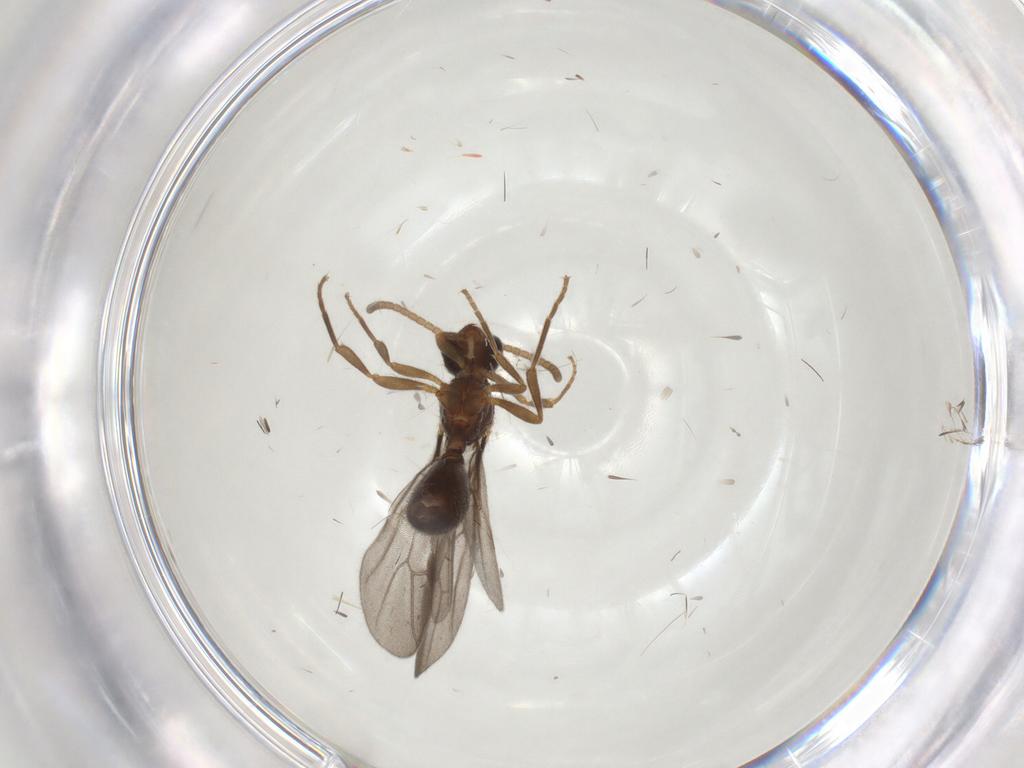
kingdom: Animalia
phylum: Arthropoda
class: Insecta
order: Hymenoptera
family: Formicidae
